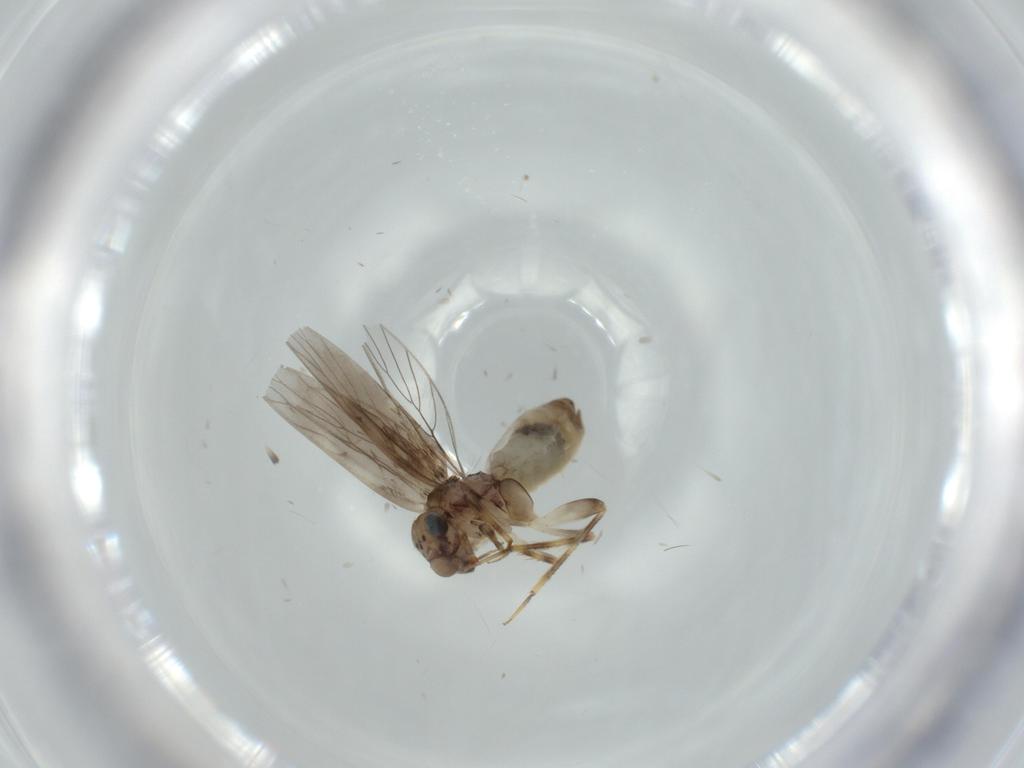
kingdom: Animalia
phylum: Arthropoda
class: Insecta
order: Psocodea
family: Lepidopsocidae
